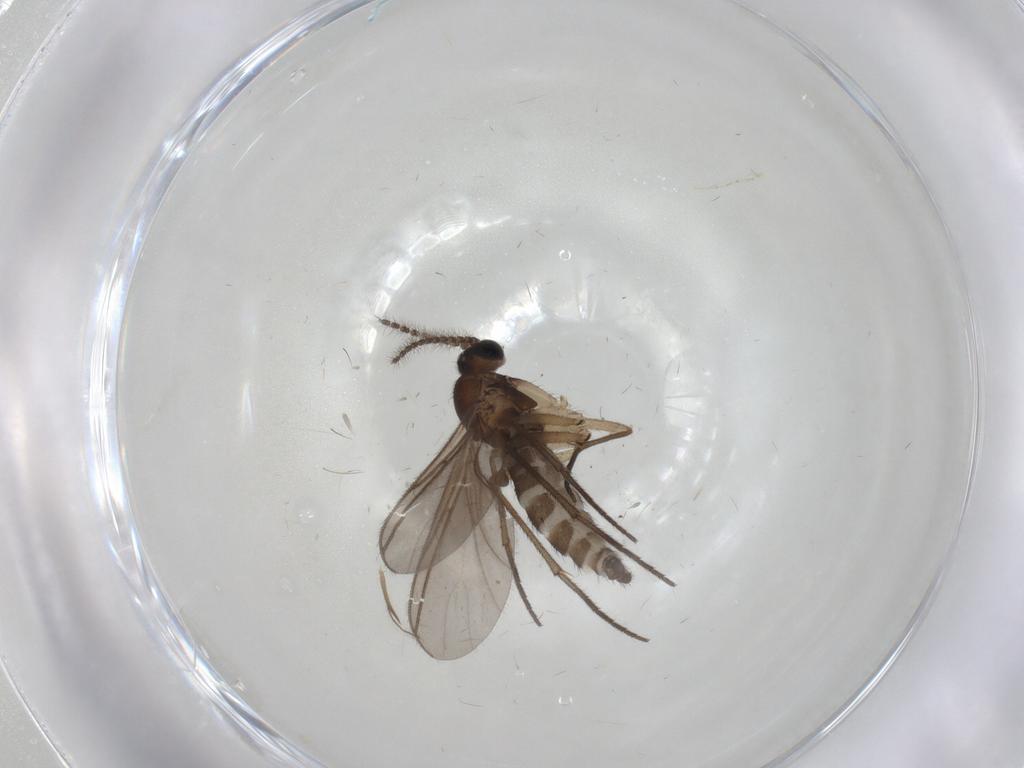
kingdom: Animalia
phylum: Arthropoda
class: Insecta
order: Diptera
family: Sciaridae
